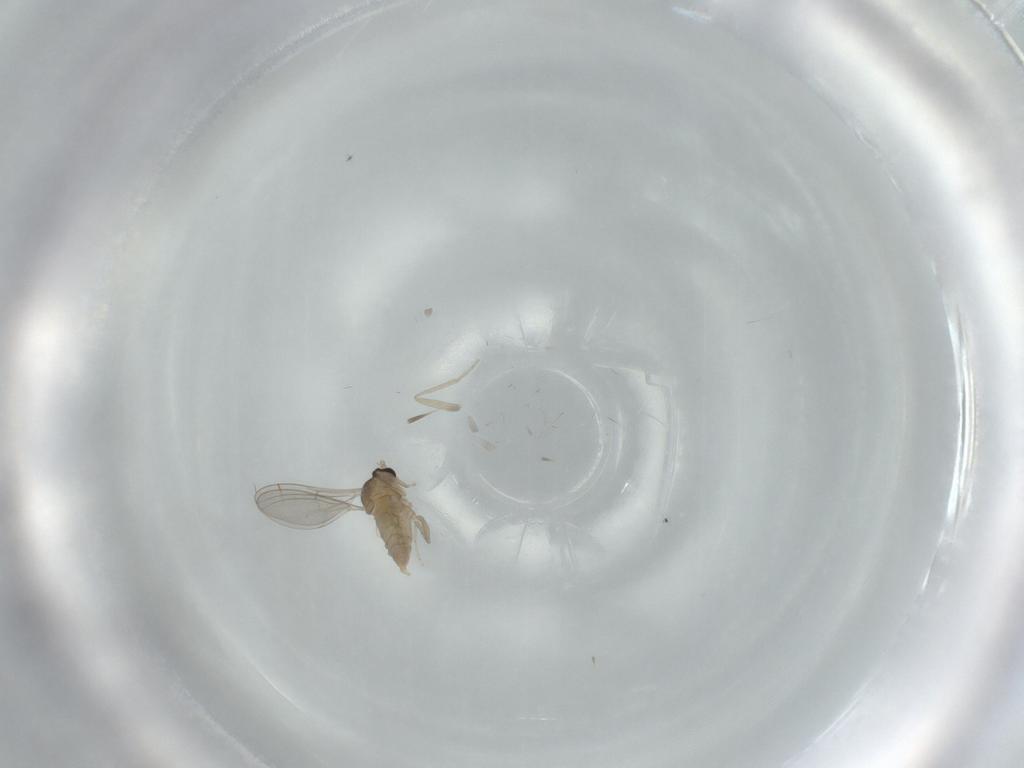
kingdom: Animalia
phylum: Arthropoda
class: Insecta
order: Diptera
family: Cecidomyiidae
